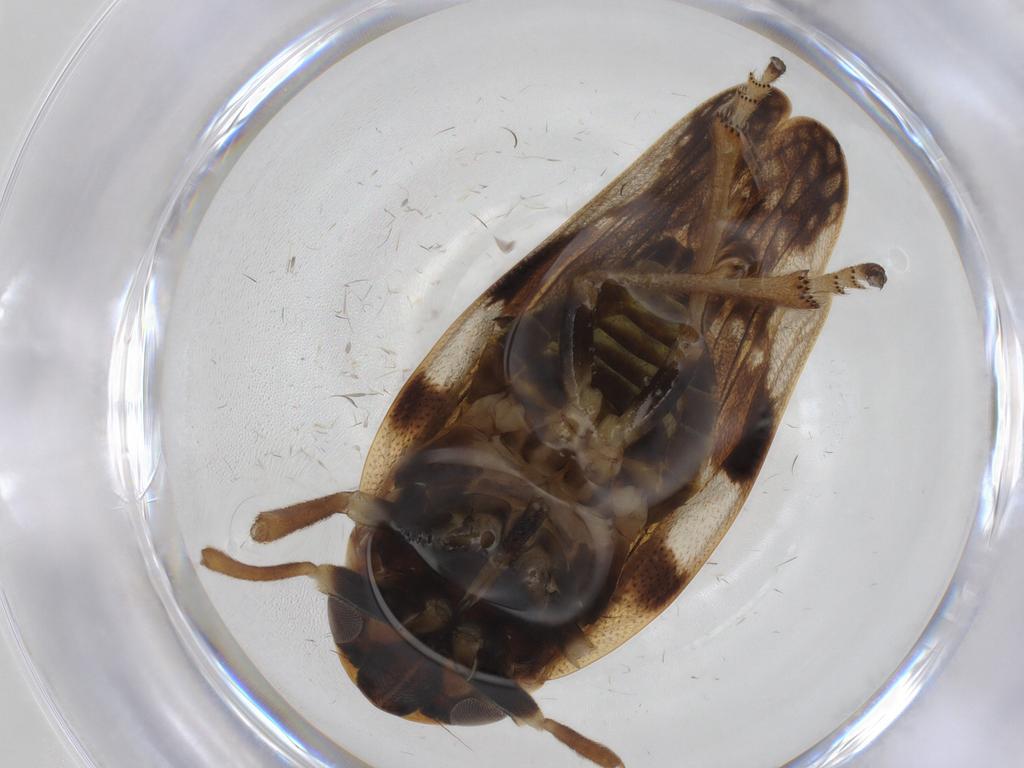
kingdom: Animalia
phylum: Arthropoda
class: Insecta
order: Hemiptera
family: Aphrophoridae
